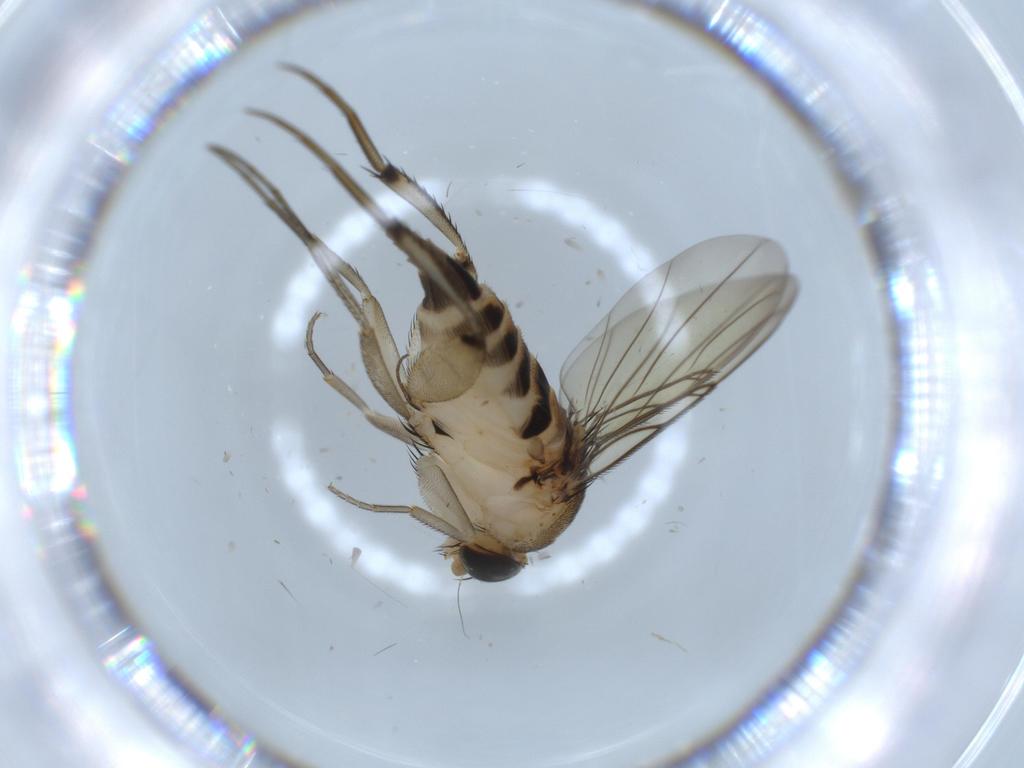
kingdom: Animalia
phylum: Arthropoda
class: Insecta
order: Diptera
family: Phoridae
